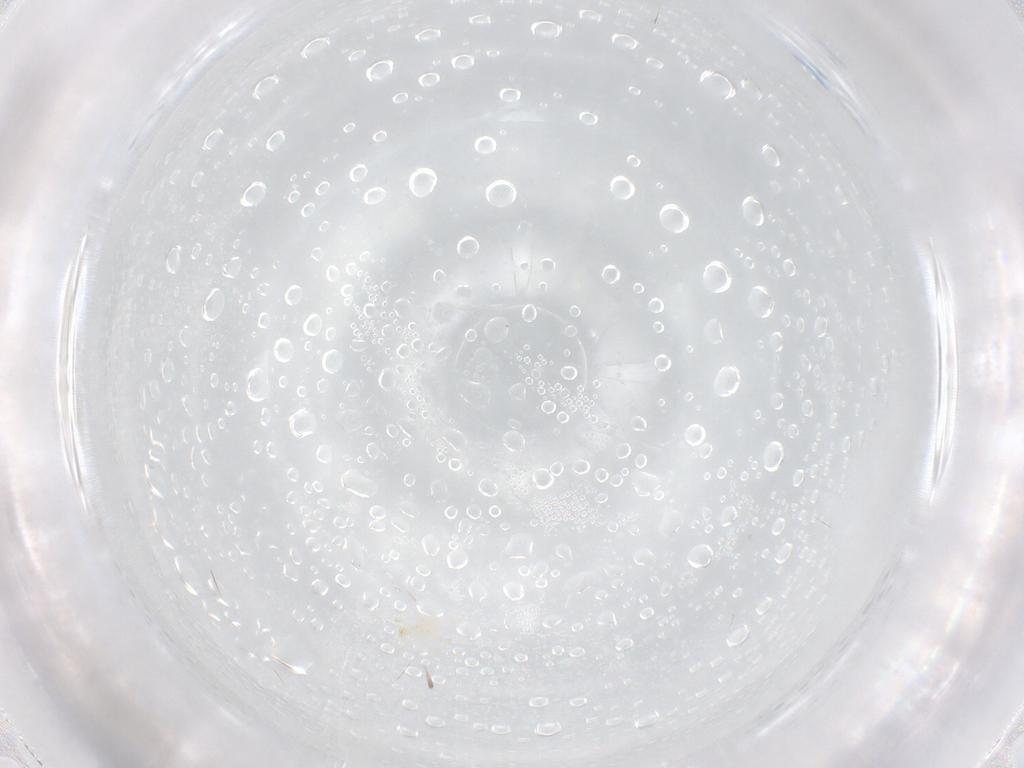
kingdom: Animalia
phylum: Arthropoda
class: Arachnida
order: Trombidiformes
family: Erythraeidae
